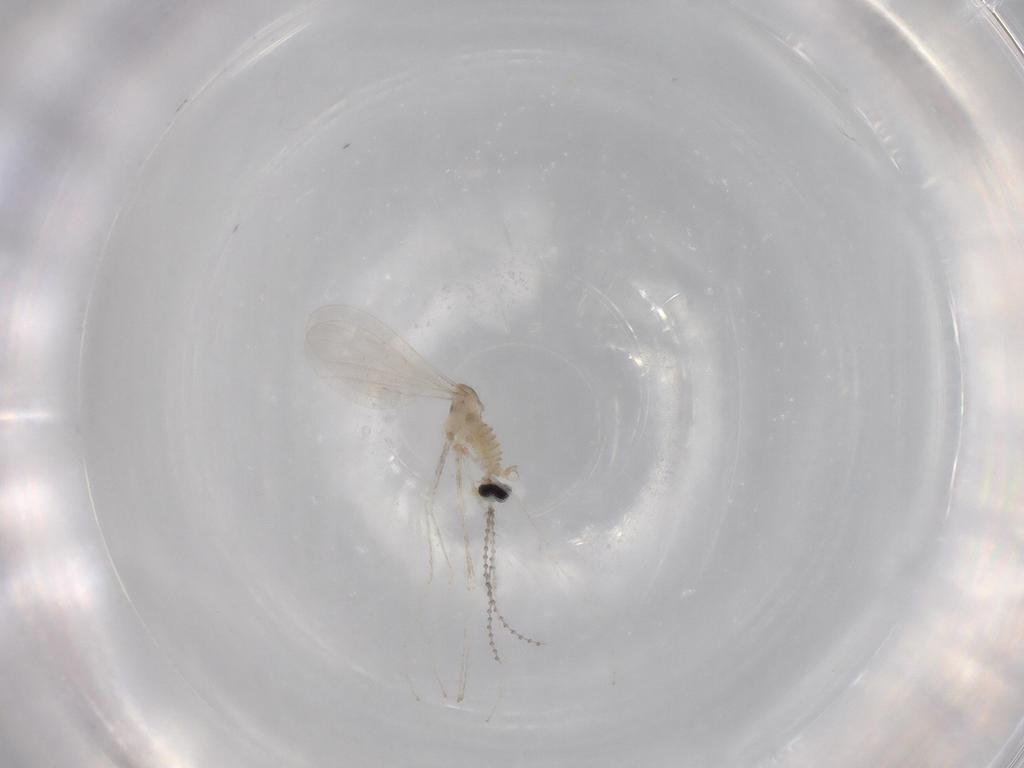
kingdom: Animalia
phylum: Arthropoda
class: Insecta
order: Diptera
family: Cecidomyiidae
